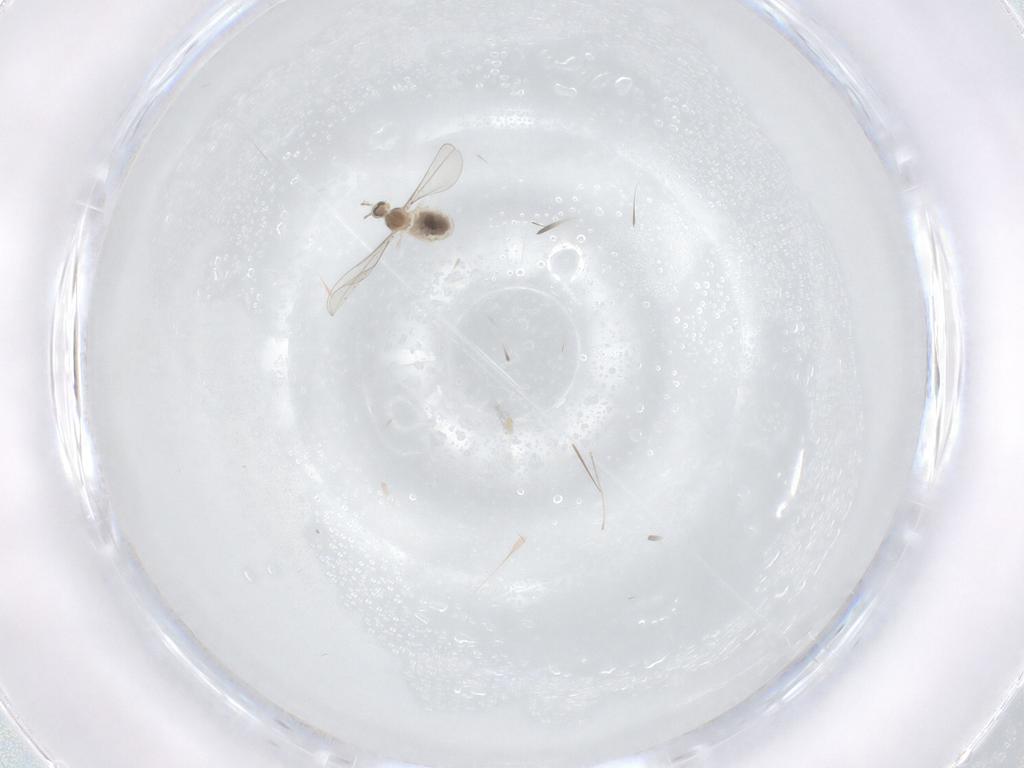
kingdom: Animalia
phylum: Arthropoda
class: Insecta
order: Diptera
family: Cecidomyiidae
